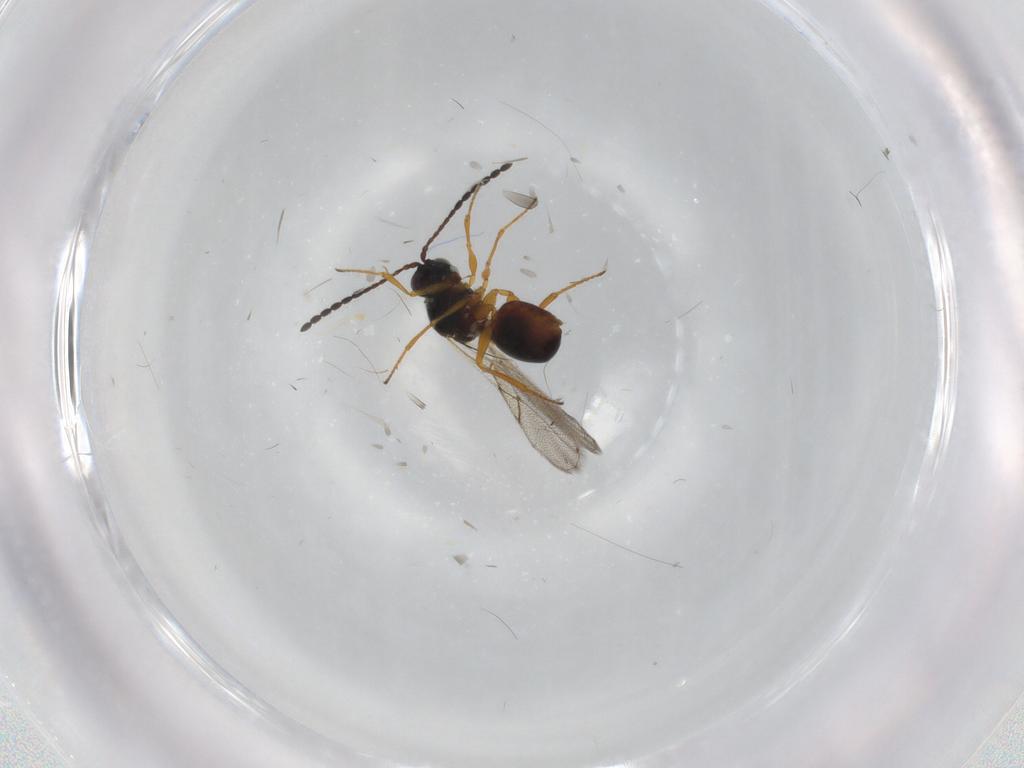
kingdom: Animalia
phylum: Arthropoda
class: Insecta
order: Hymenoptera
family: Figitidae
